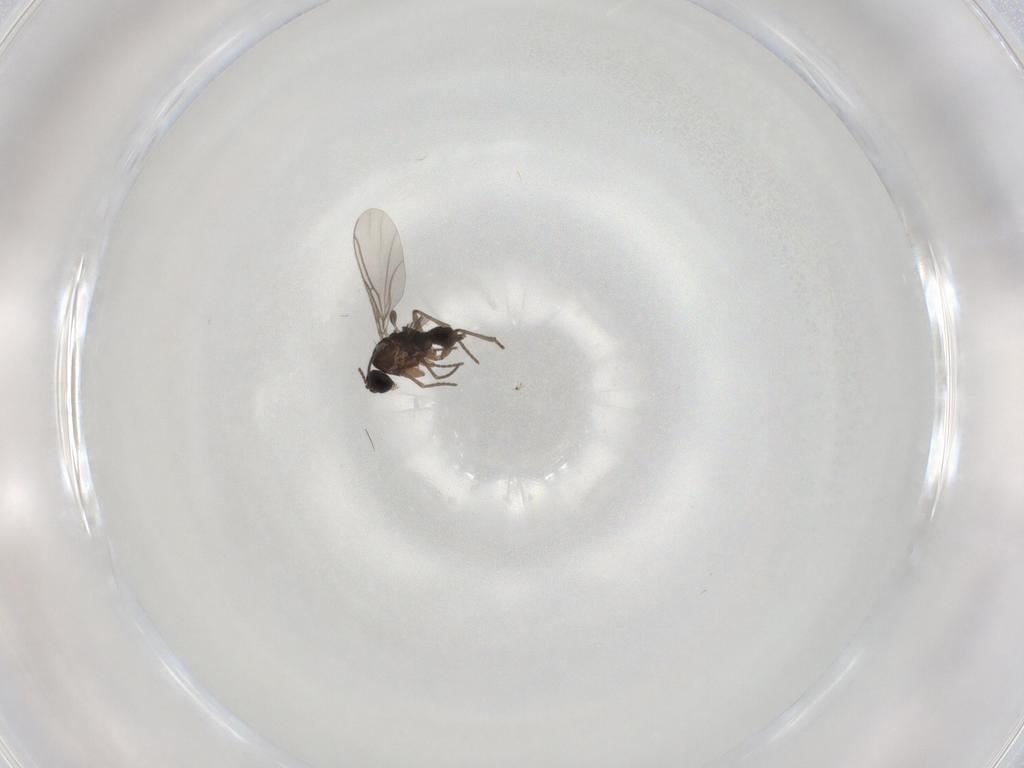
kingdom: Animalia
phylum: Arthropoda
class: Insecta
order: Diptera
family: Sciaridae
